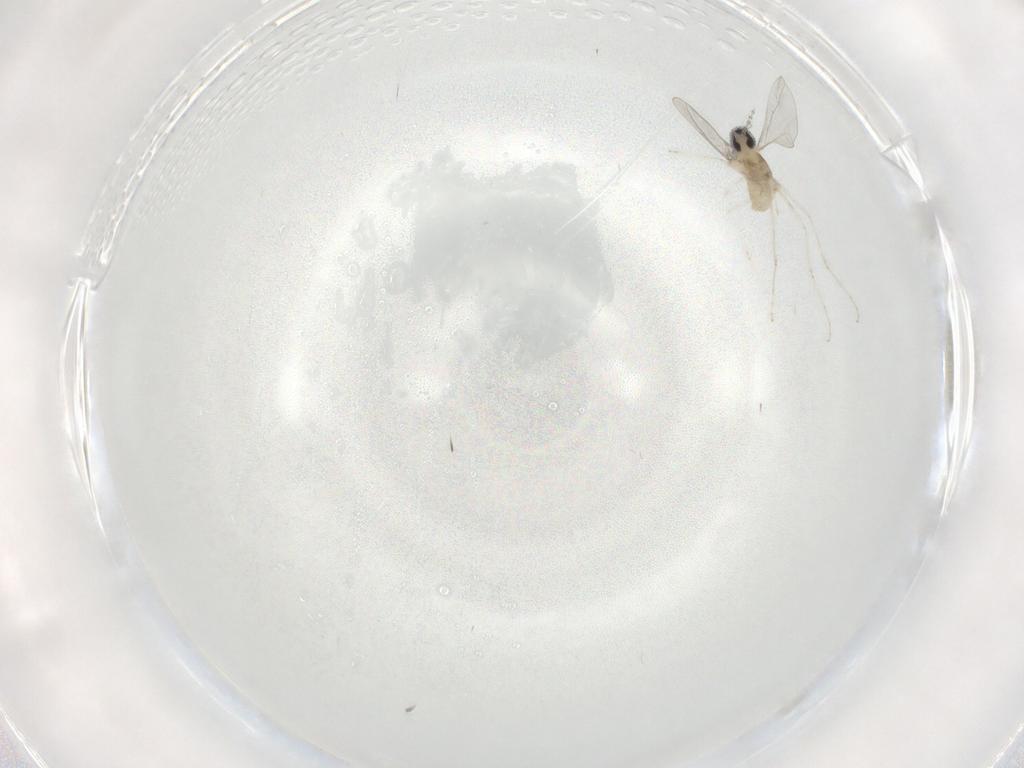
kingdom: Animalia
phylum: Arthropoda
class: Insecta
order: Diptera
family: Cecidomyiidae
